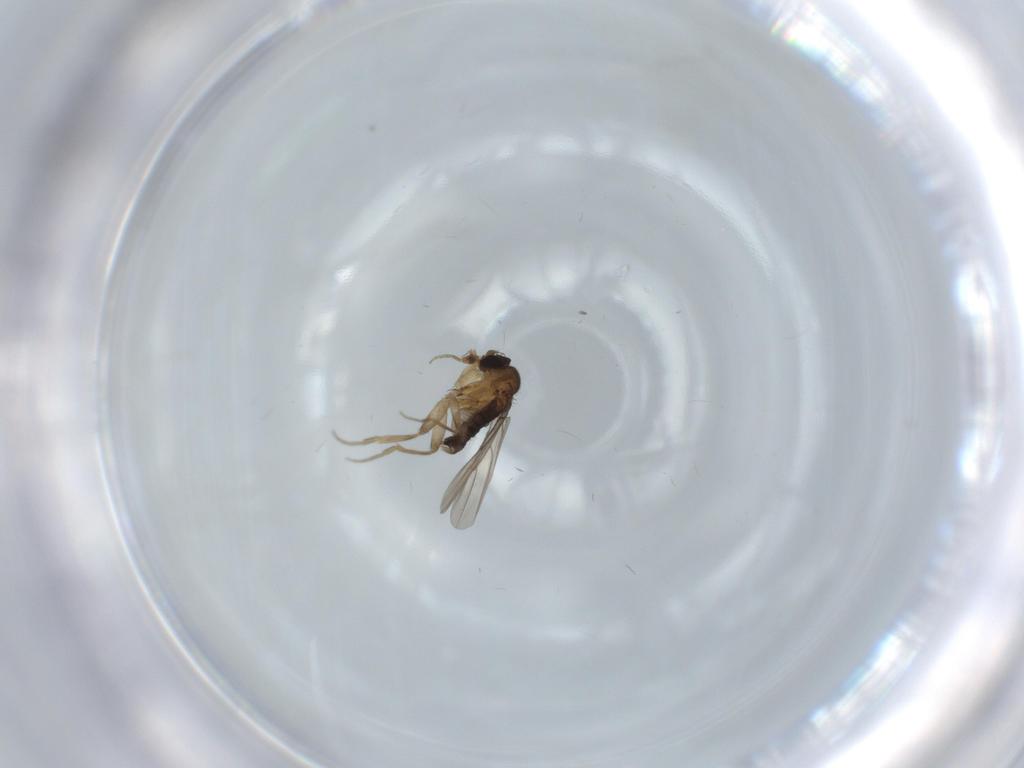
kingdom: Animalia
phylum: Arthropoda
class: Insecta
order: Diptera
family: Phoridae
